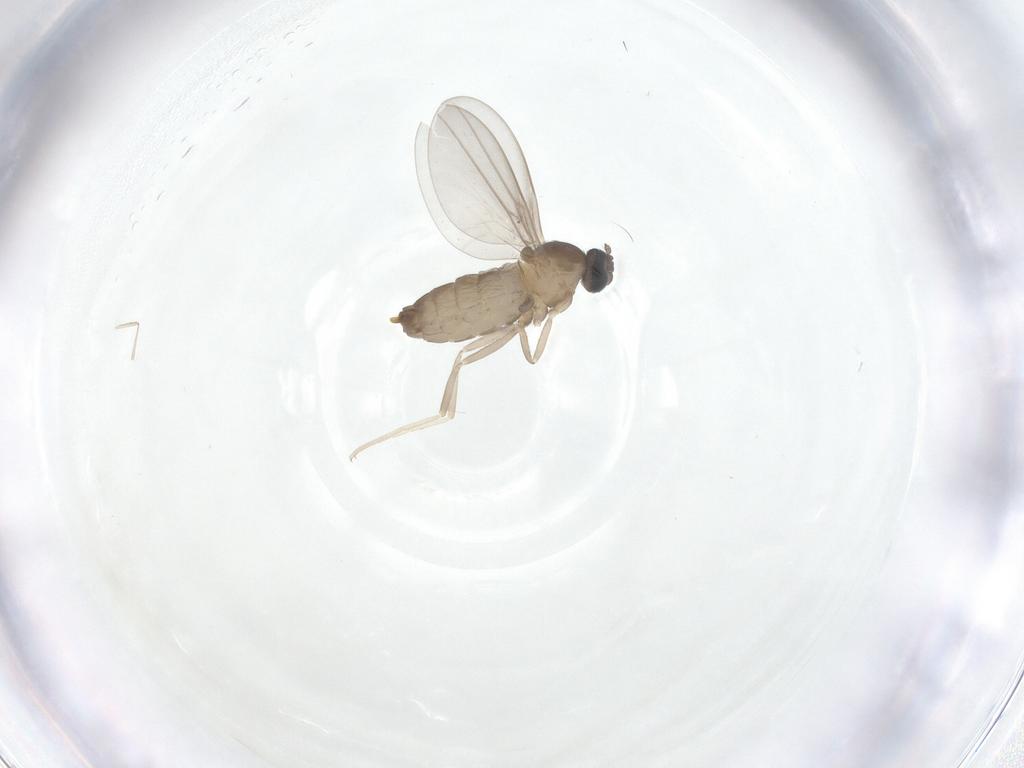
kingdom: Animalia
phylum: Arthropoda
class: Insecta
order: Diptera
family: Cecidomyiidae
